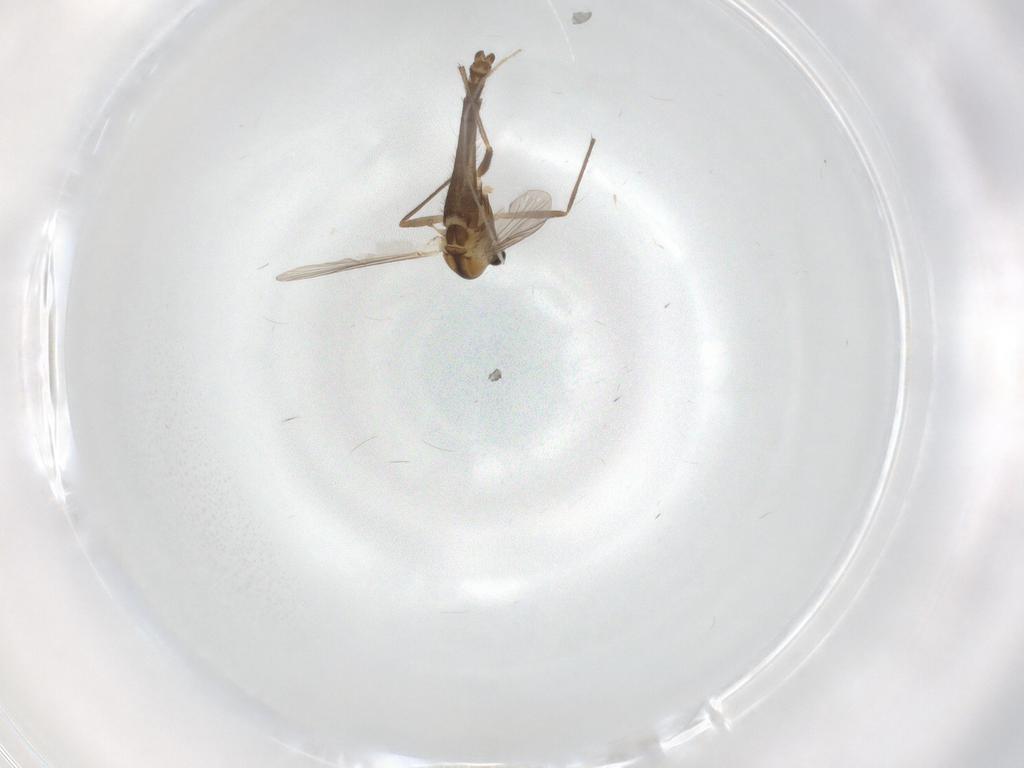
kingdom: Animalia
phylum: Arthropoda
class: Insecta
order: Diptera
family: Chironomidae
